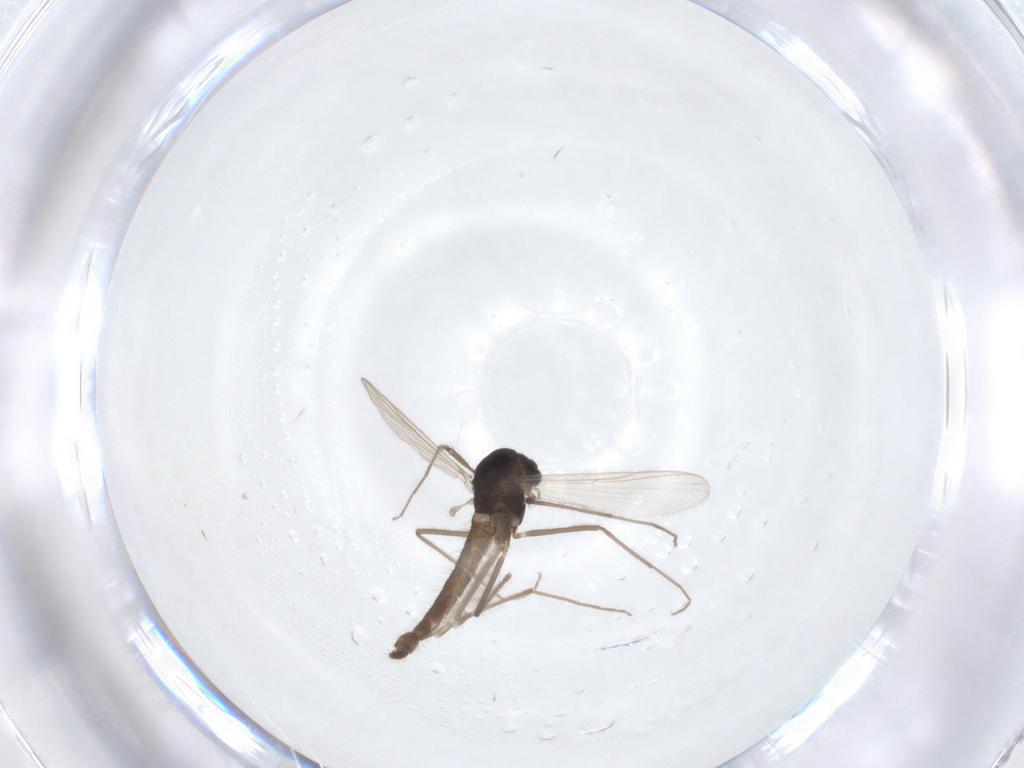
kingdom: Animalia
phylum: Arthropoda
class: Insecta
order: Diptera
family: Chironomidae
